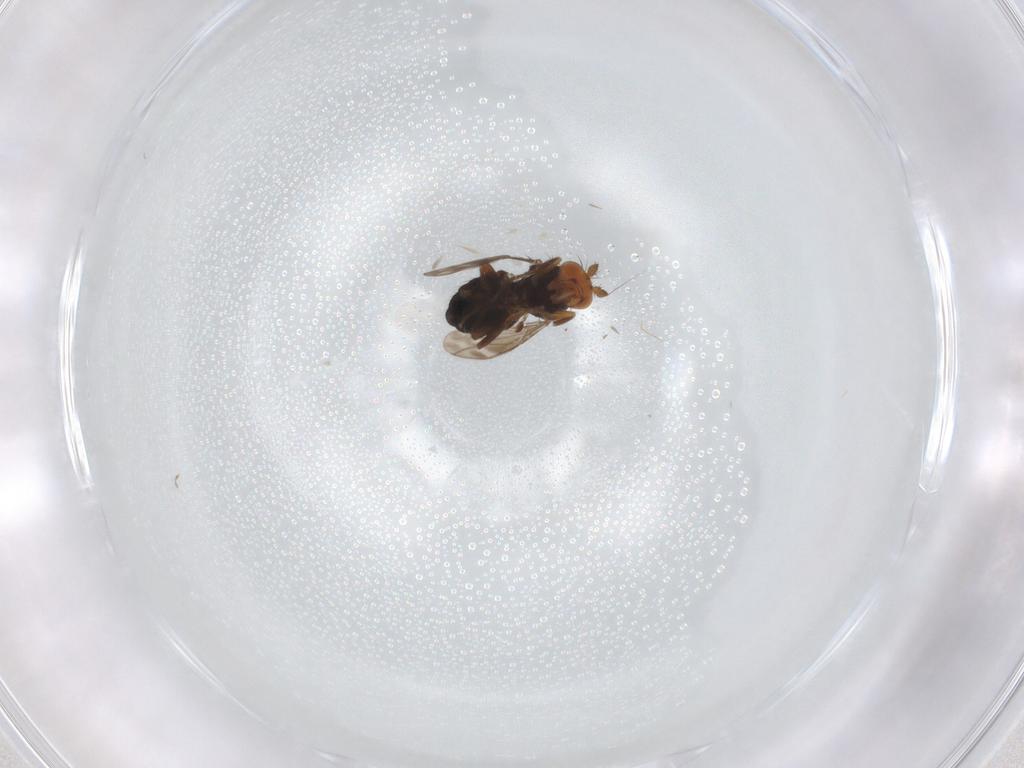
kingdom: Animalia
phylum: Arthropoda
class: Insecta
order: Diptera
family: Sphaeroceridae
